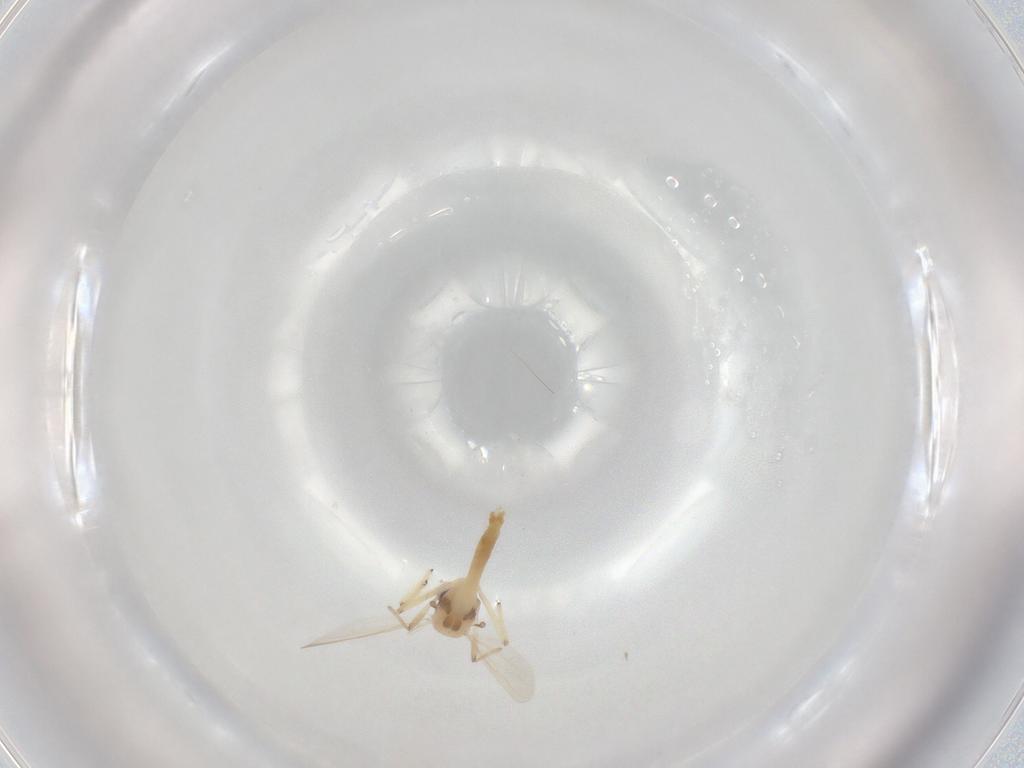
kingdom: Animalia
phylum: Arthropoda
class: Insecta
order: Diptera
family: Chironomidae
